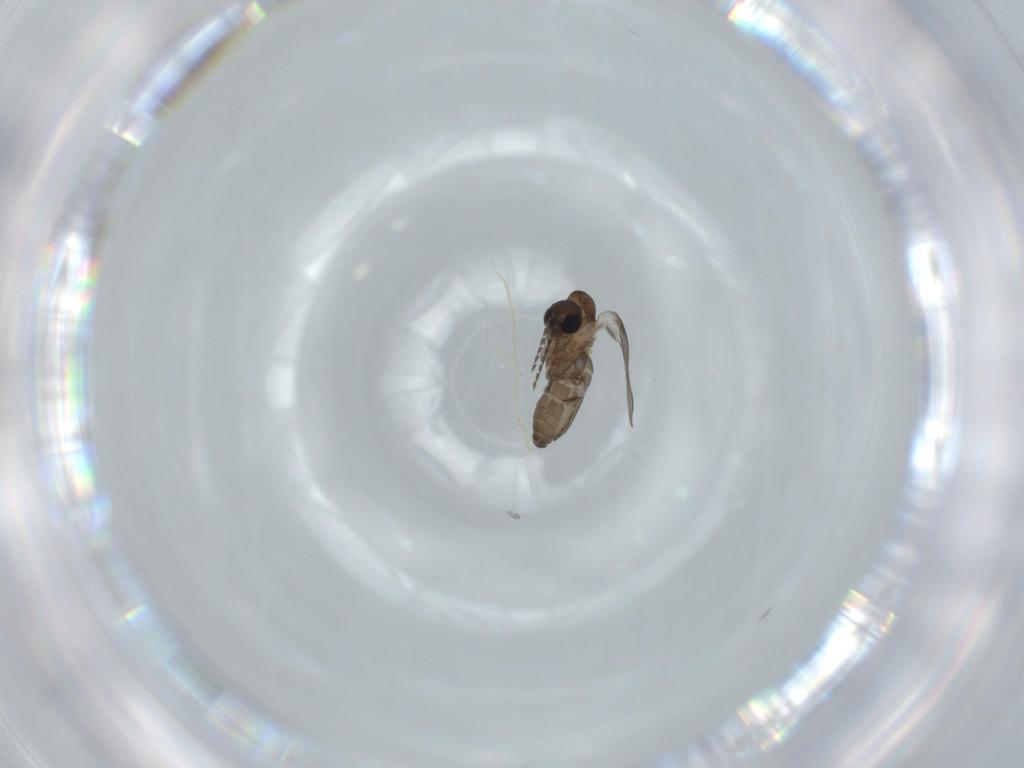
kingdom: Animalia
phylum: Arthropoda
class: Insecta
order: Diptera
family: Psychodidae
